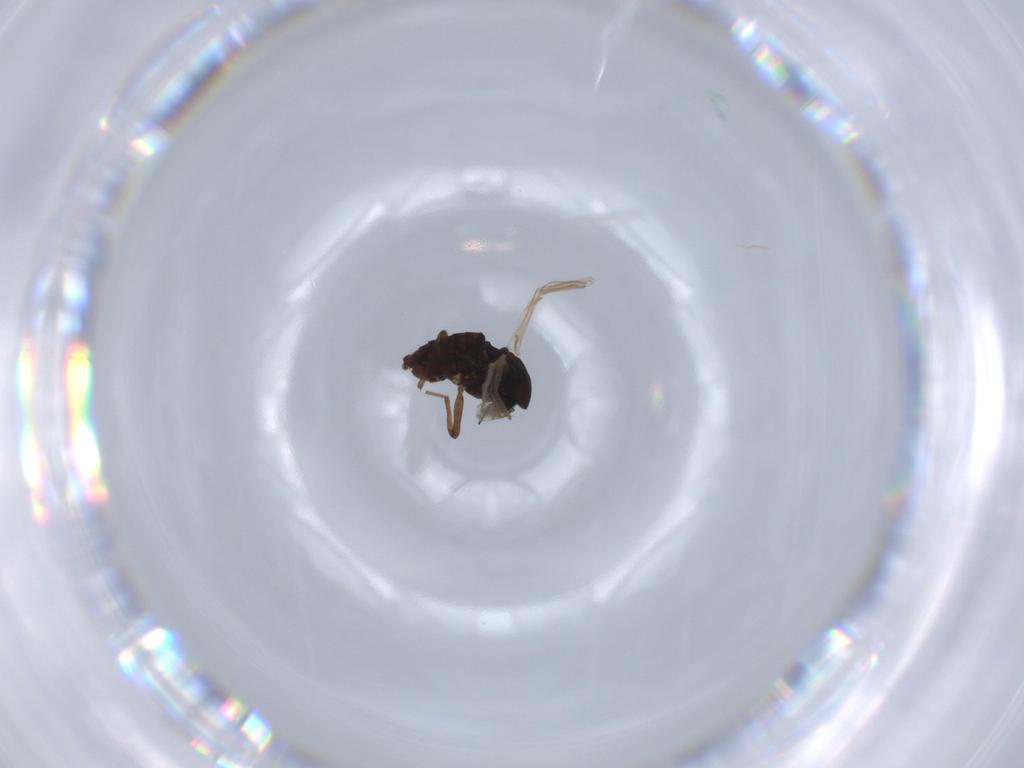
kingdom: Animalia
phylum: Arthropoda
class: Insecta
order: Diptera
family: Chironomidae
